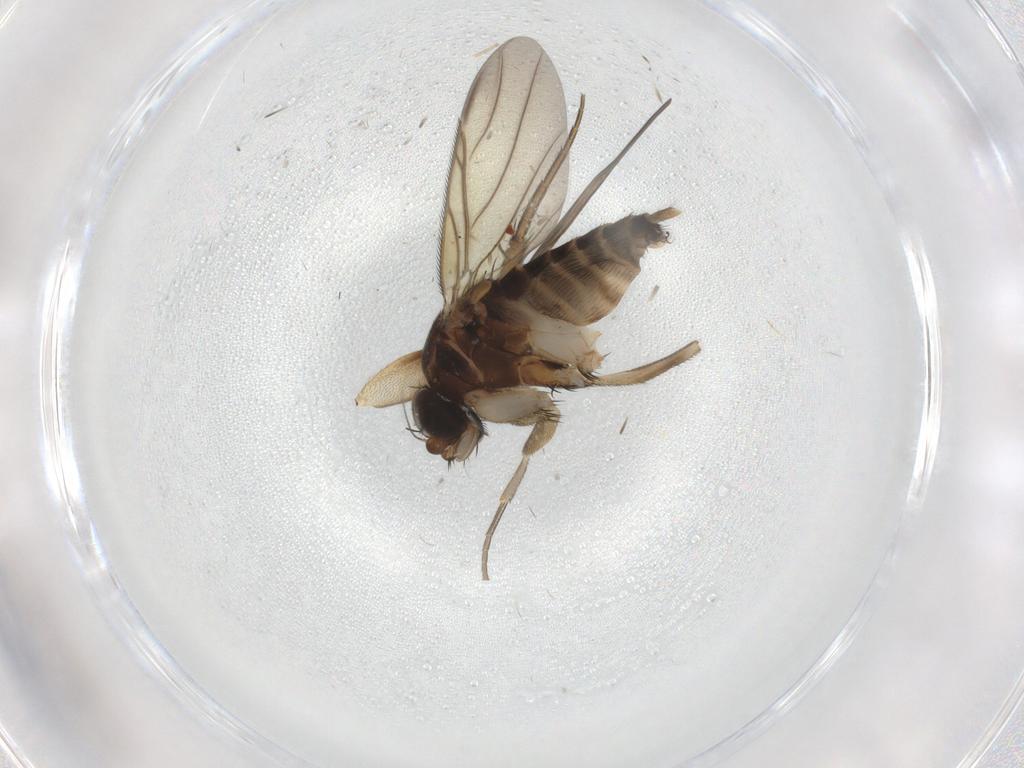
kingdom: Animalia
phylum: Arthropoda
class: Insecta
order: Diptera
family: Phoridae
